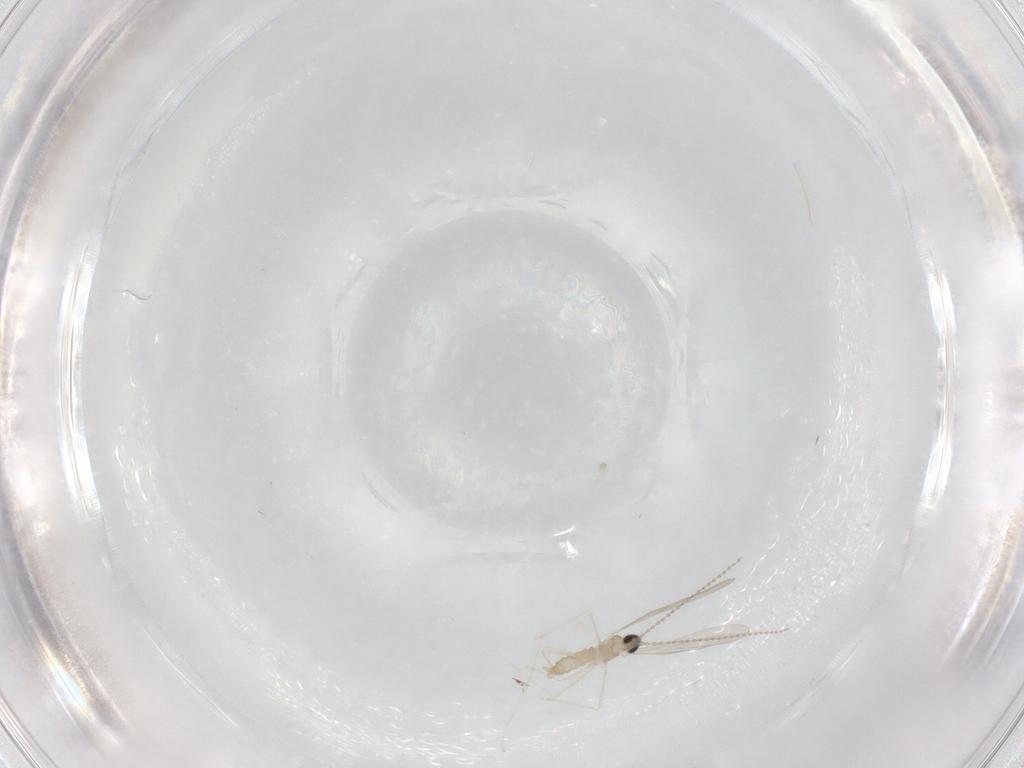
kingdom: Animalia
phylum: Arthropoda
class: Insecta
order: Diptera
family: Cecidomyiidae
